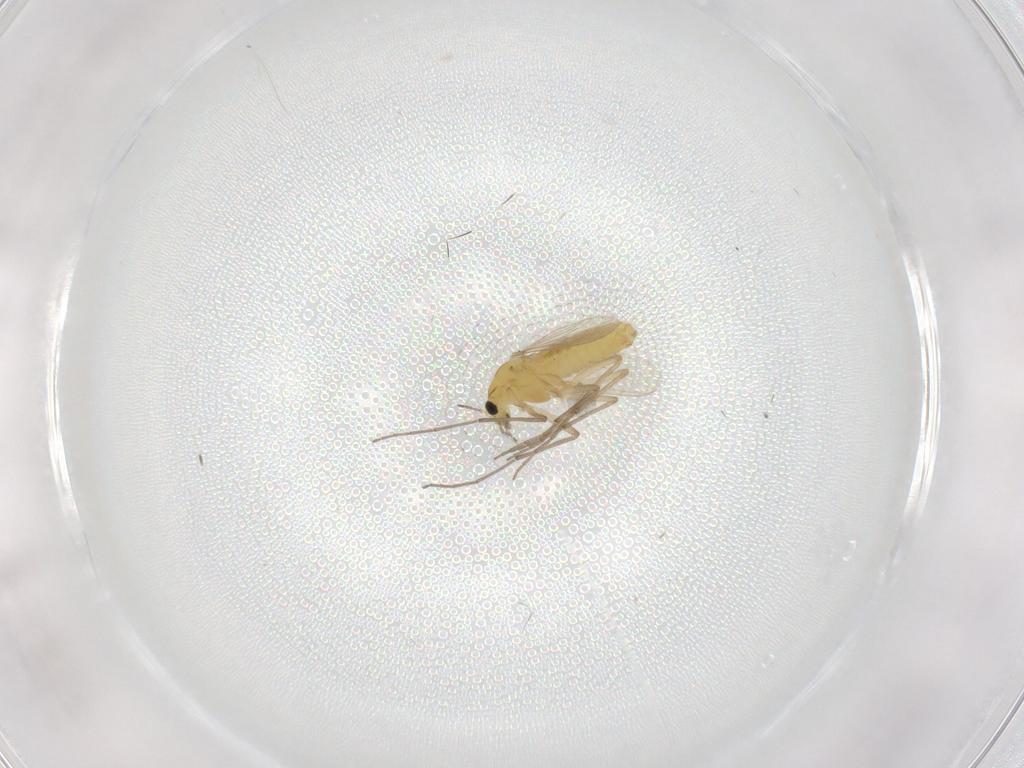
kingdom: Animalia
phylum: Arthropoda
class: Insecta
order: Diptera
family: Chironomidae
